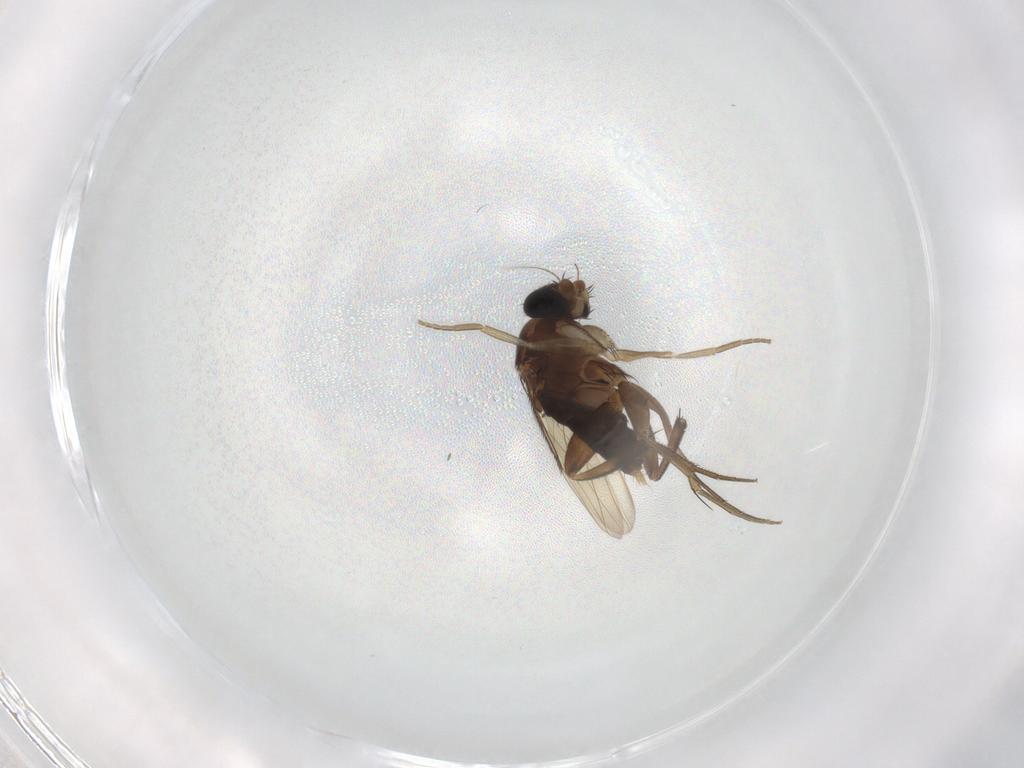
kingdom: Animalia
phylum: Arthropoda
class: Insecta
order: Diptera
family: Phoridae
